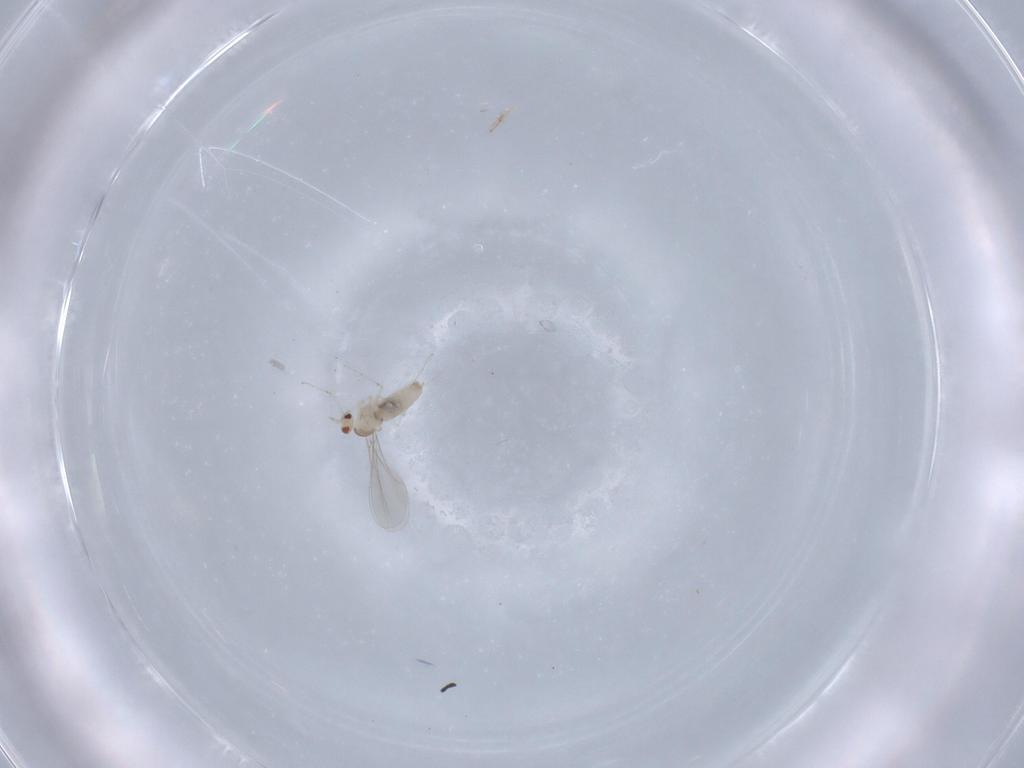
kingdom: Animalia
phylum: Arthropoda
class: Insecta
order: Diptera
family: Cecidomyiidae
